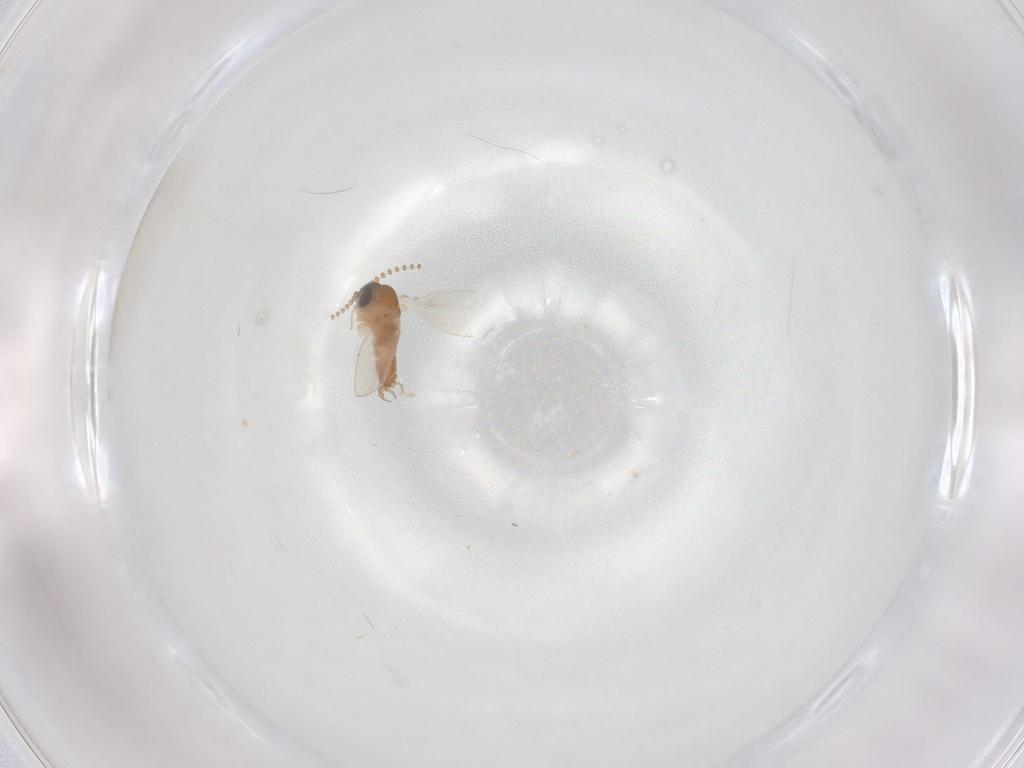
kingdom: Animalia
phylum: Arthropoda
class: Insecta
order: Diptera
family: Psychodidae
